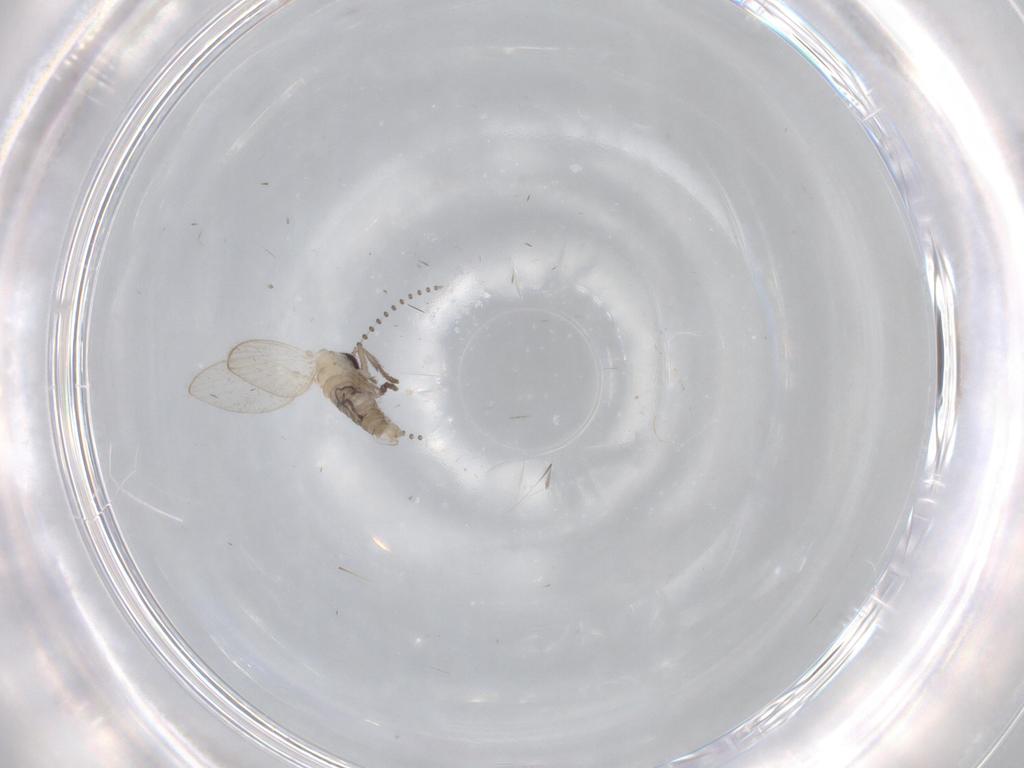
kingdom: Animalia
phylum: Arthropoda
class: Insecta
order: Diptera
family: Psychodidae
